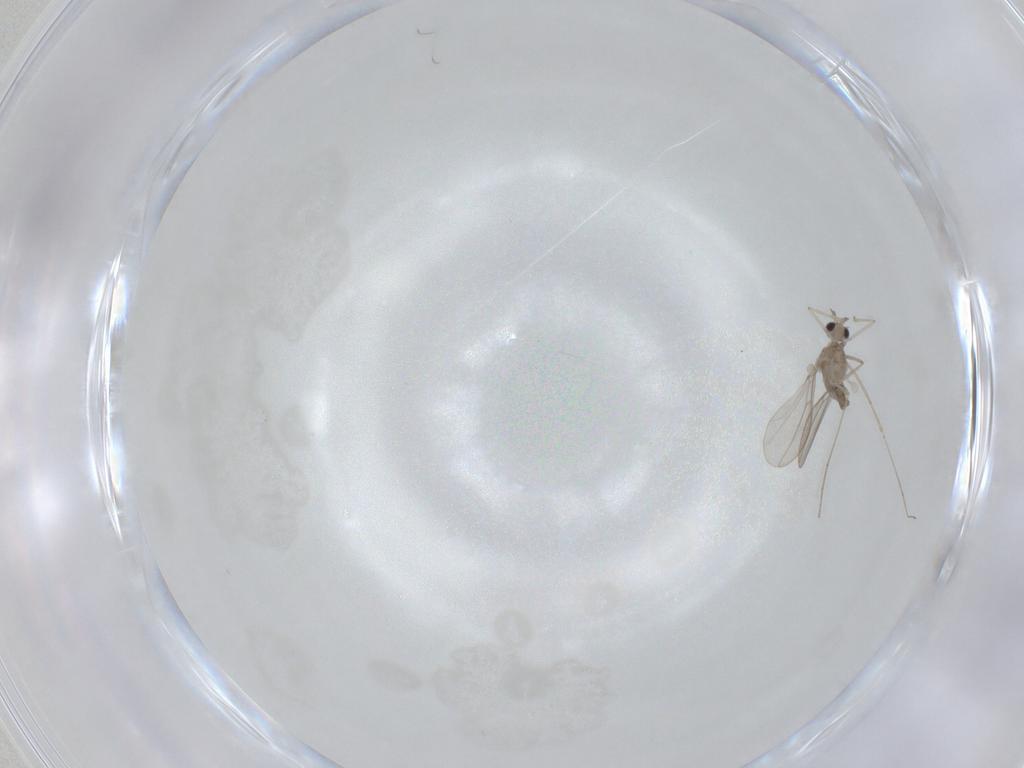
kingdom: Animalia
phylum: Arthropoda
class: Insecta
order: Diptera
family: Cecidomyiidae
